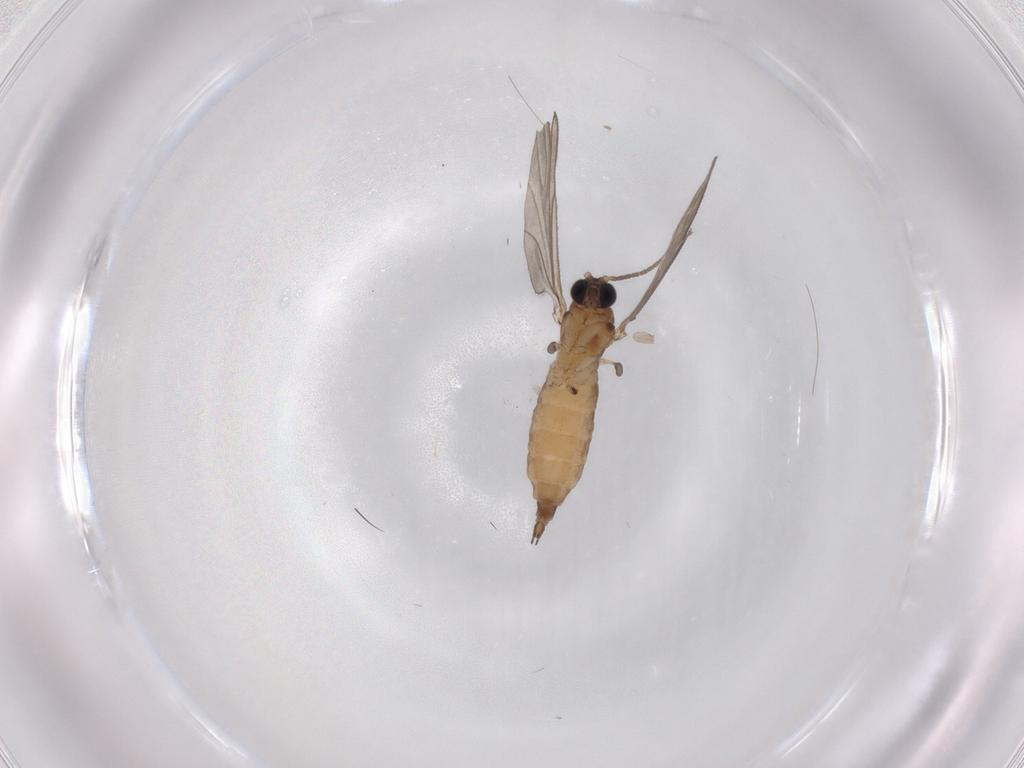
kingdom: Animalia
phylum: Arthropoda
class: Insecta
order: Diptera
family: Sciaridae
